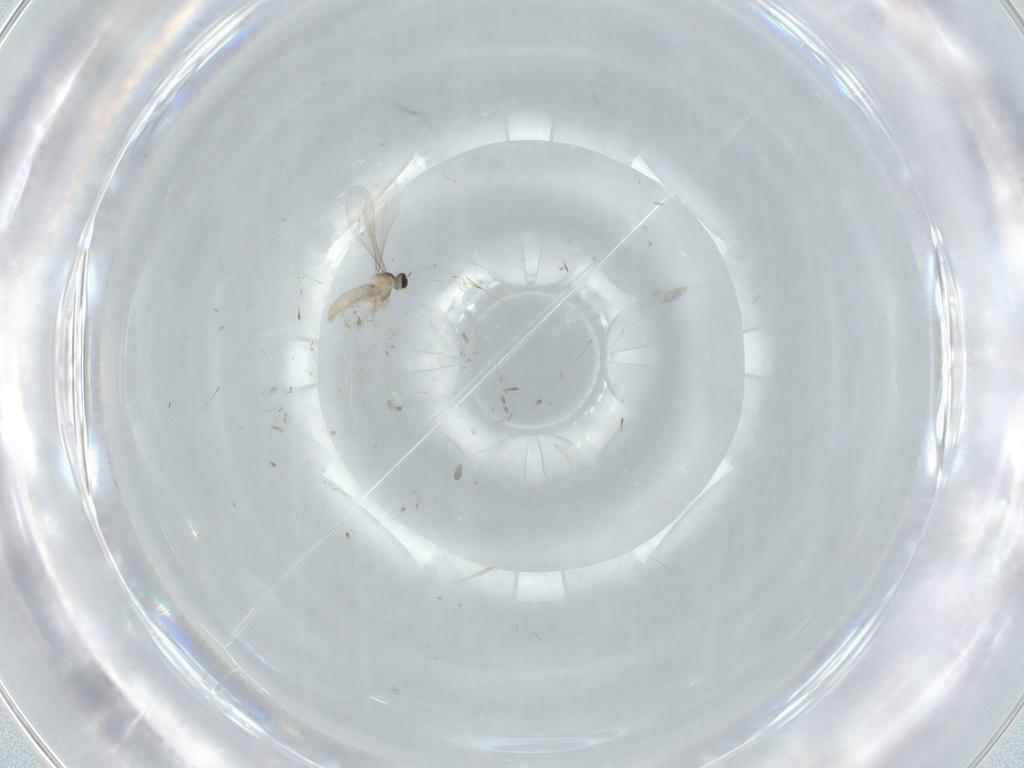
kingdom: Animalia
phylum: Arthropoda
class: Insecta
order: Diptera
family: Cecidomyiidae
